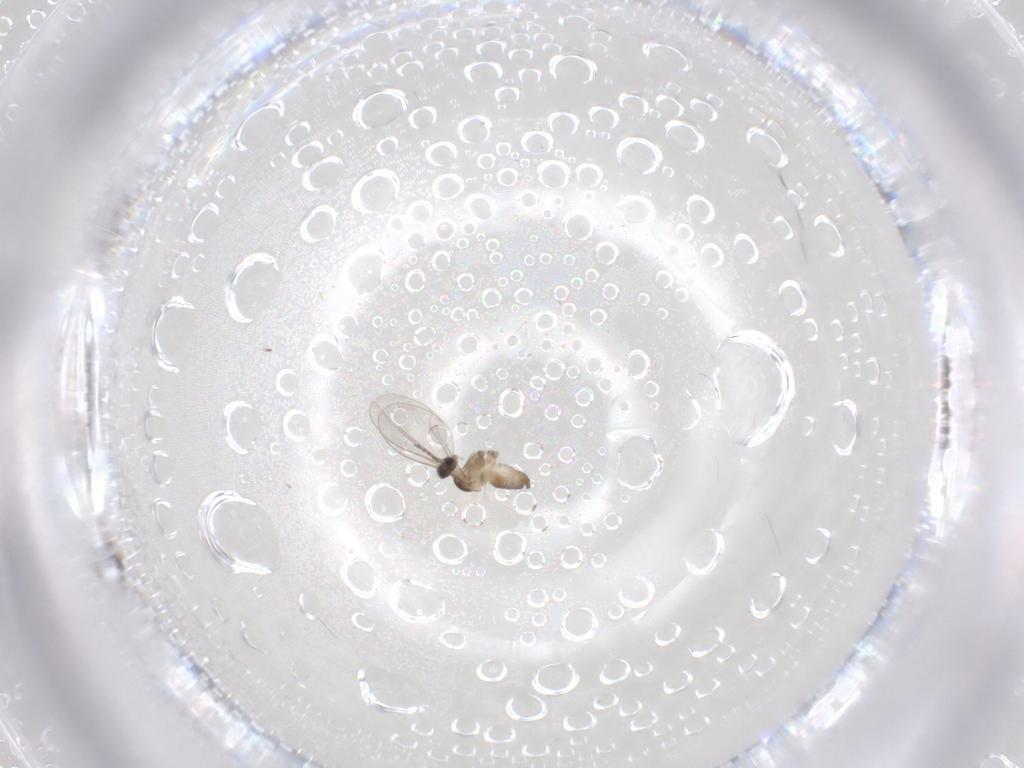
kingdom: Animalia
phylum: Arthropoda
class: Insecta
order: Diptera
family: Cecidomyiidae
